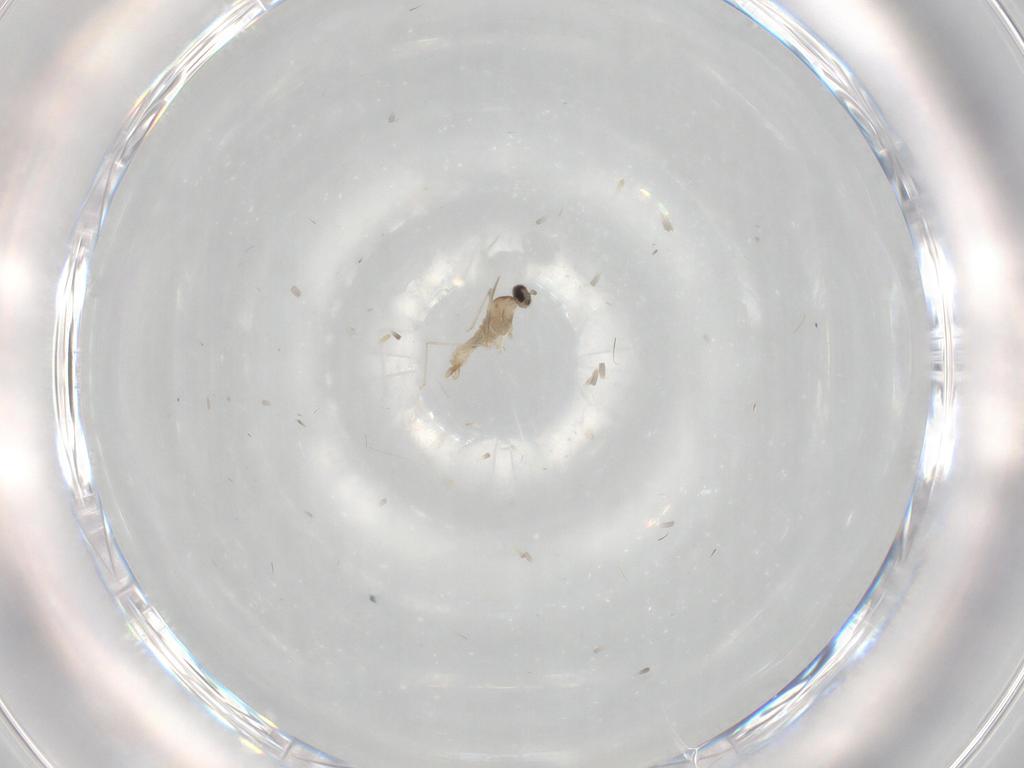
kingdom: Animalia
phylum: Arthropoda
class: Insecta
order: Diptera
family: Cecidomyiidae
